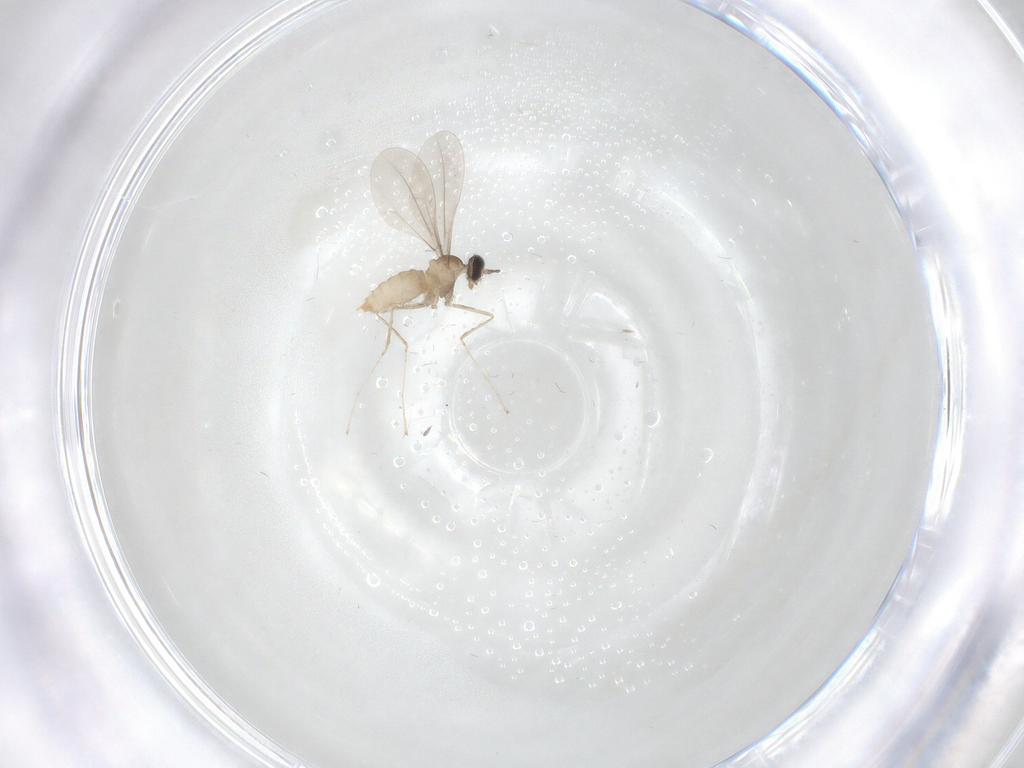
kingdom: Animalia
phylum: Arthropoda
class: Insecta
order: Diptera
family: Cecidomyiidae
